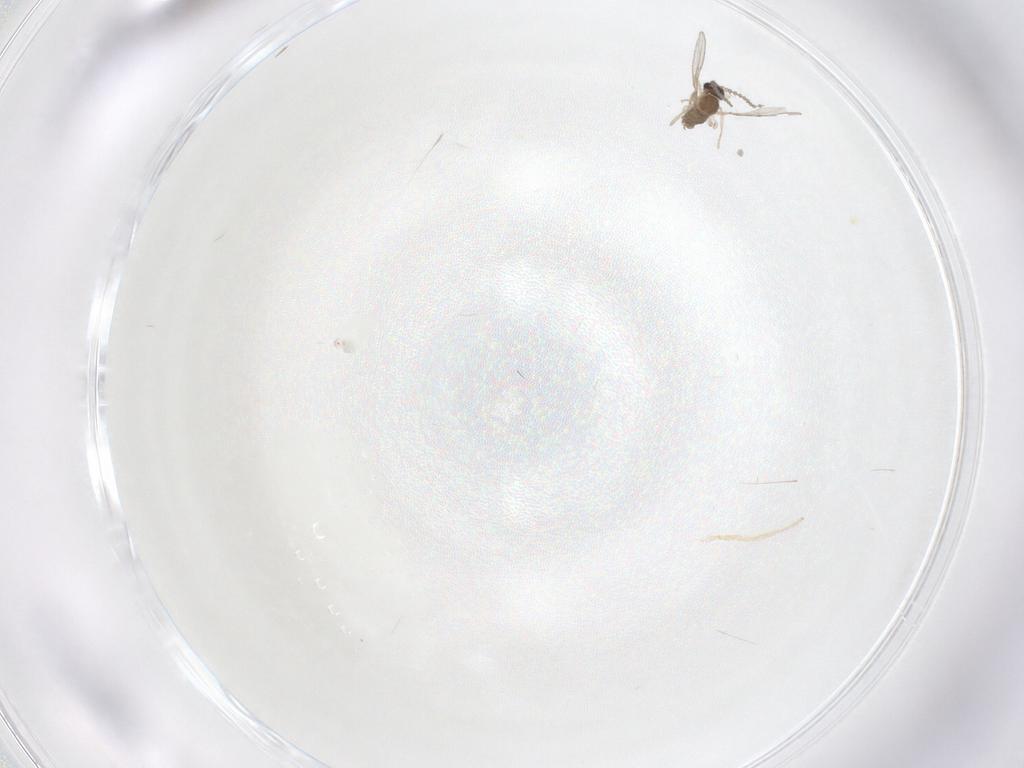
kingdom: Animalia
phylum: Arthropoda
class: Insecta
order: Diptera
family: Cecidomyiidae
